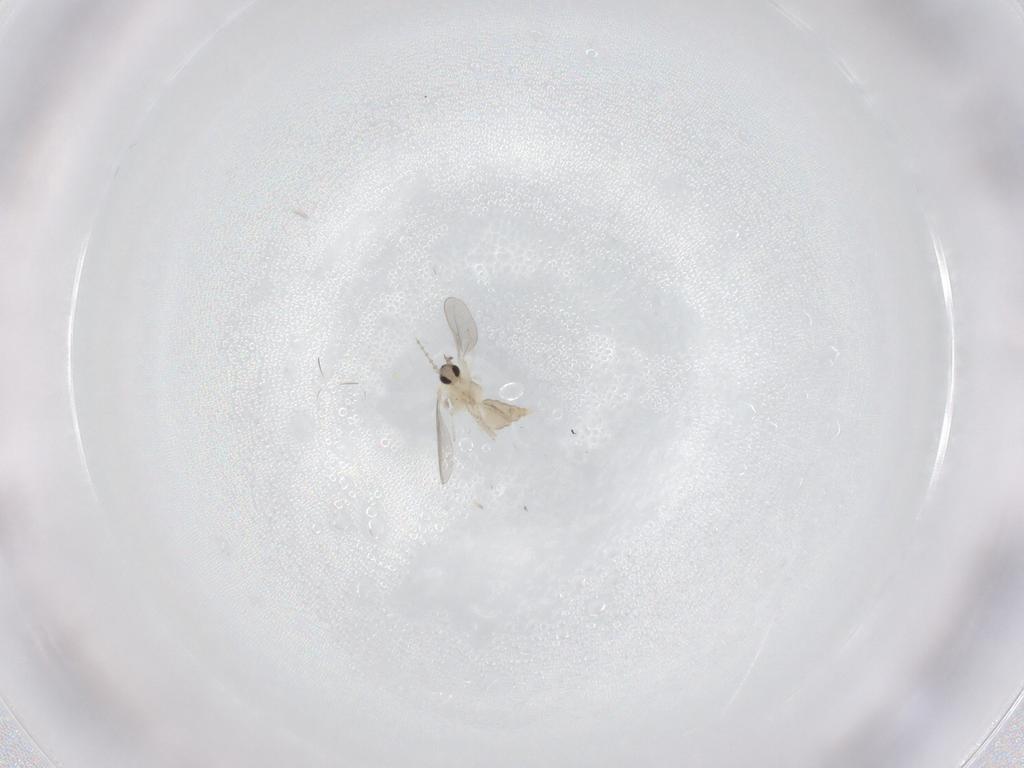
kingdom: Animalia
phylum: Arthropoda
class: Insecta
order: Diptera
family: Cecidomyiidae
